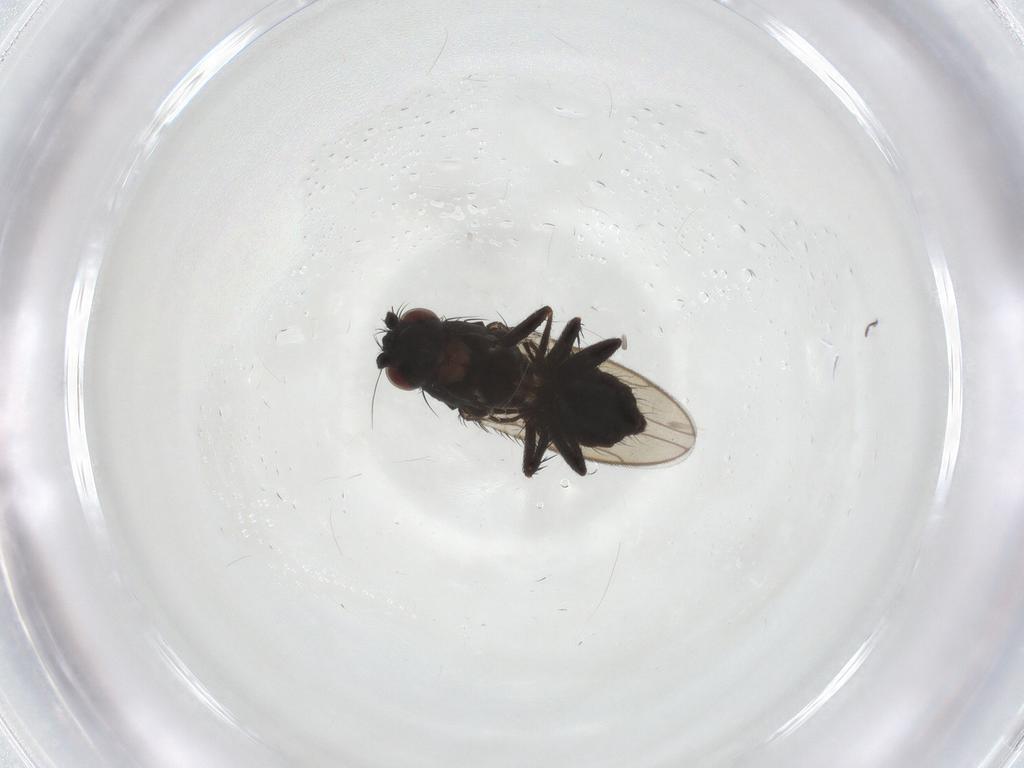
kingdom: Animalia
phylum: Arthropoda
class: Insecta
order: Diptera
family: Sphaeroceridae
